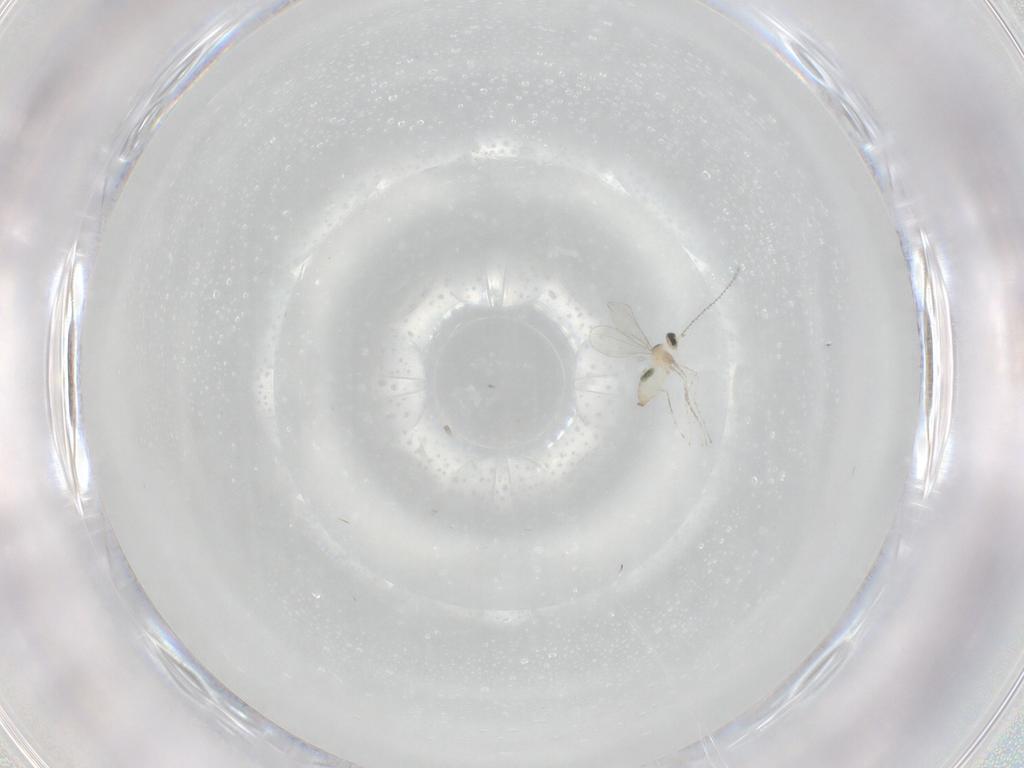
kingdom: Animalia
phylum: Arthropoda
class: Insecta
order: Diptera
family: Cecidomyiidae
